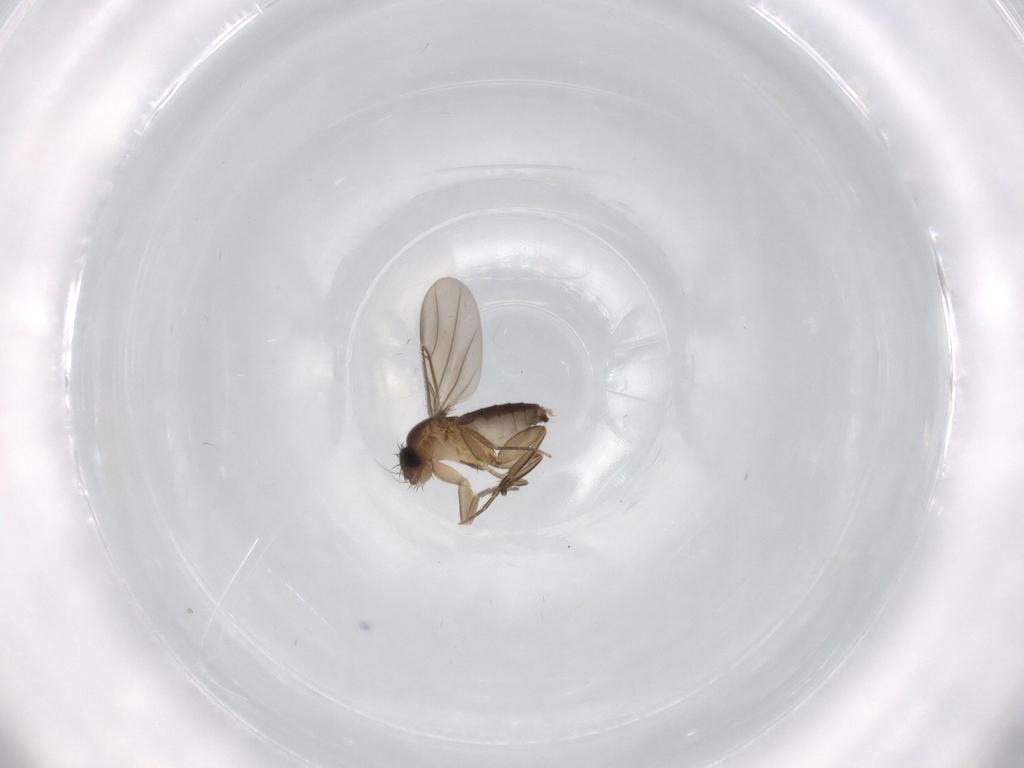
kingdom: Animalia
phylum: Arthropoda
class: Insecta
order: Diptera
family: Phoridae
